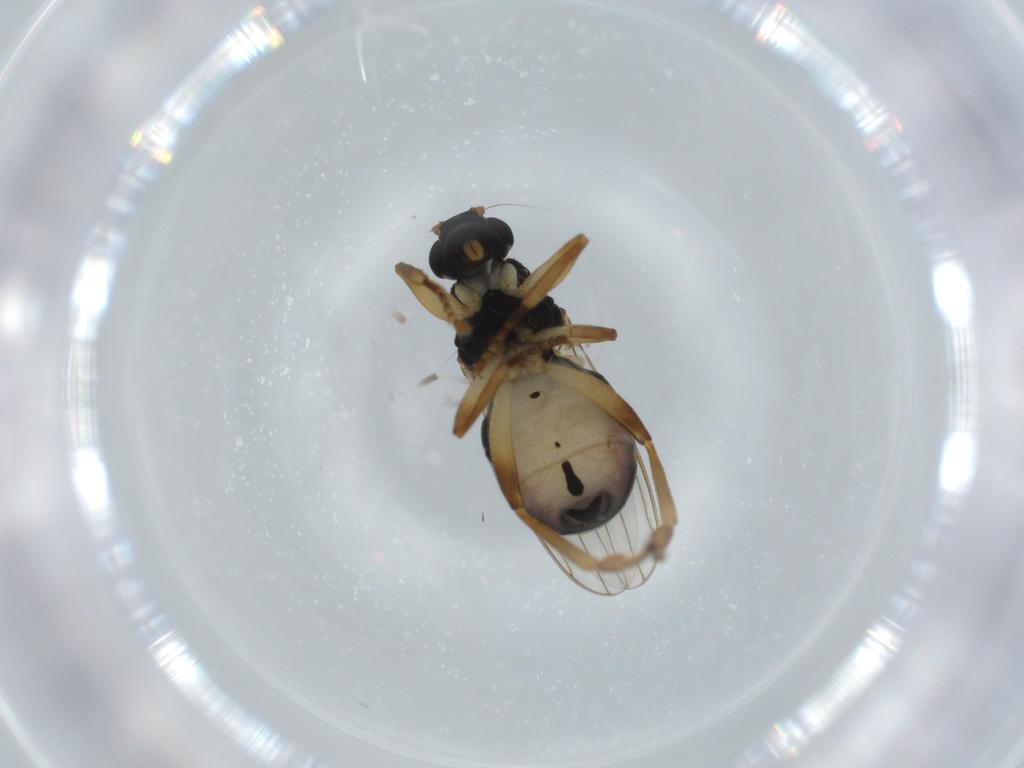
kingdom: Animalia
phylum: Arthropoda
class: Insecta
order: Diptera
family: Sphaeroceridae
